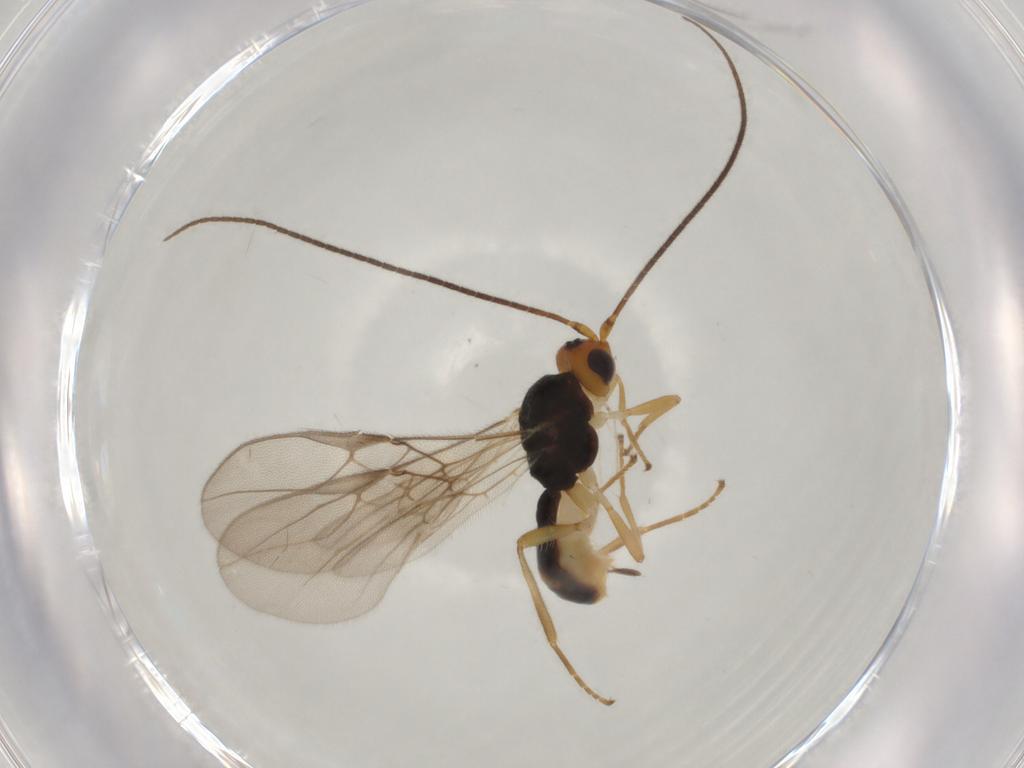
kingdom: Animalia
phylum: Arthropoda
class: Insecta
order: Hymenoptera
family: Braconidae
